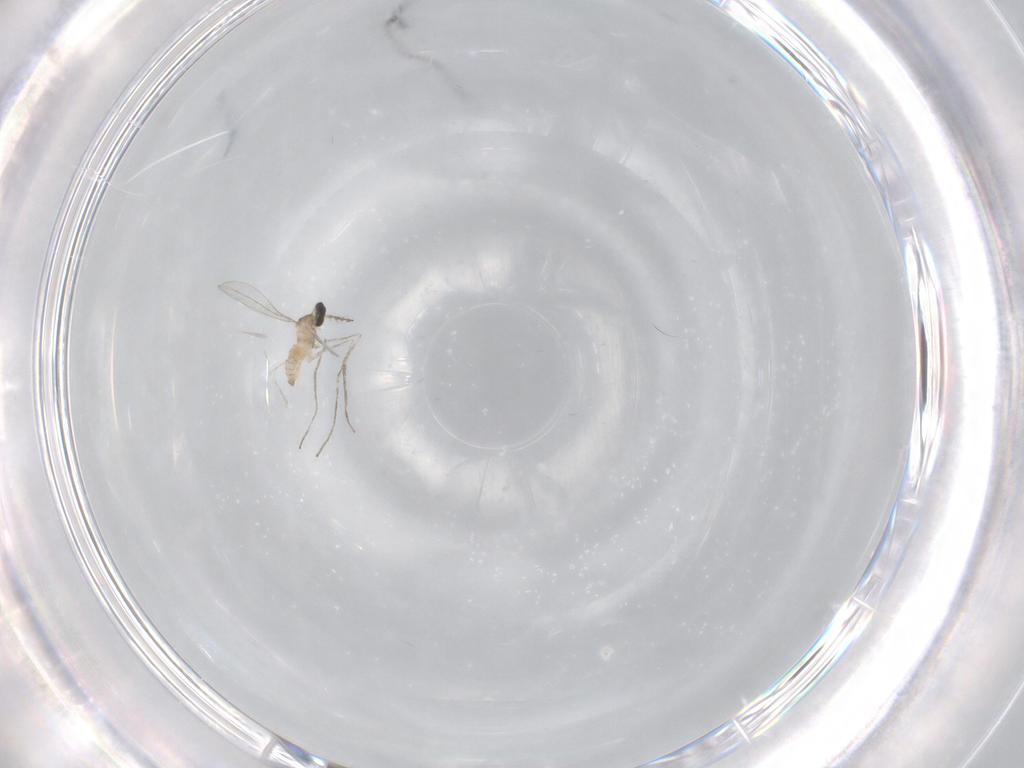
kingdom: Animalia
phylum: Arthropoda
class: Insecta
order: Diptera
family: Cecidomyiidae
